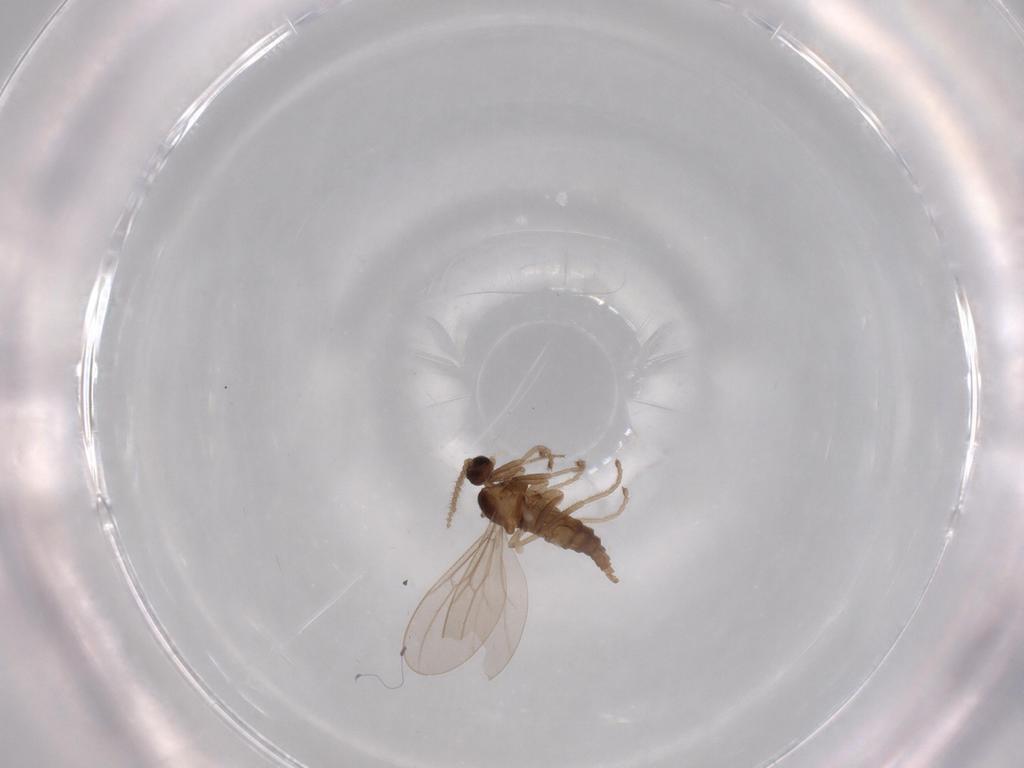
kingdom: Animalia
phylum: Arthropoda
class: Insecta
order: Diptera
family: Chironomidae
